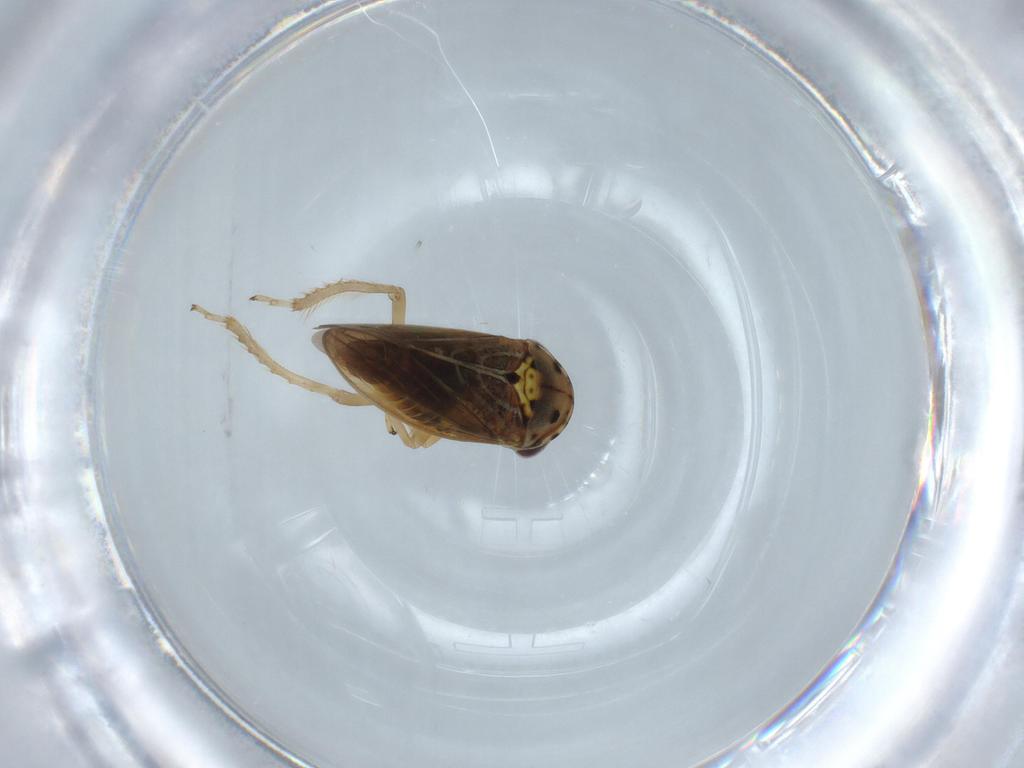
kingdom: Animalia
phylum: Arthropoda
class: Insecta
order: Hemiptera
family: Cicadellidae
